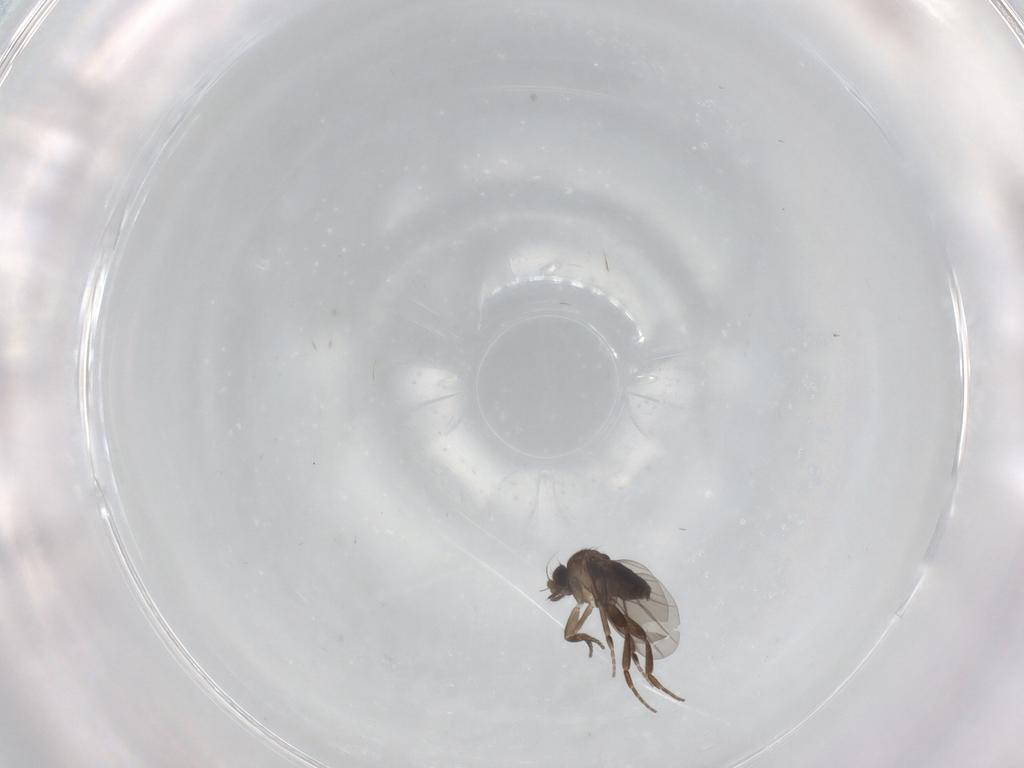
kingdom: Animalia
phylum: Arthropoda
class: Insecta
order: Diptera
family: Phoridae
